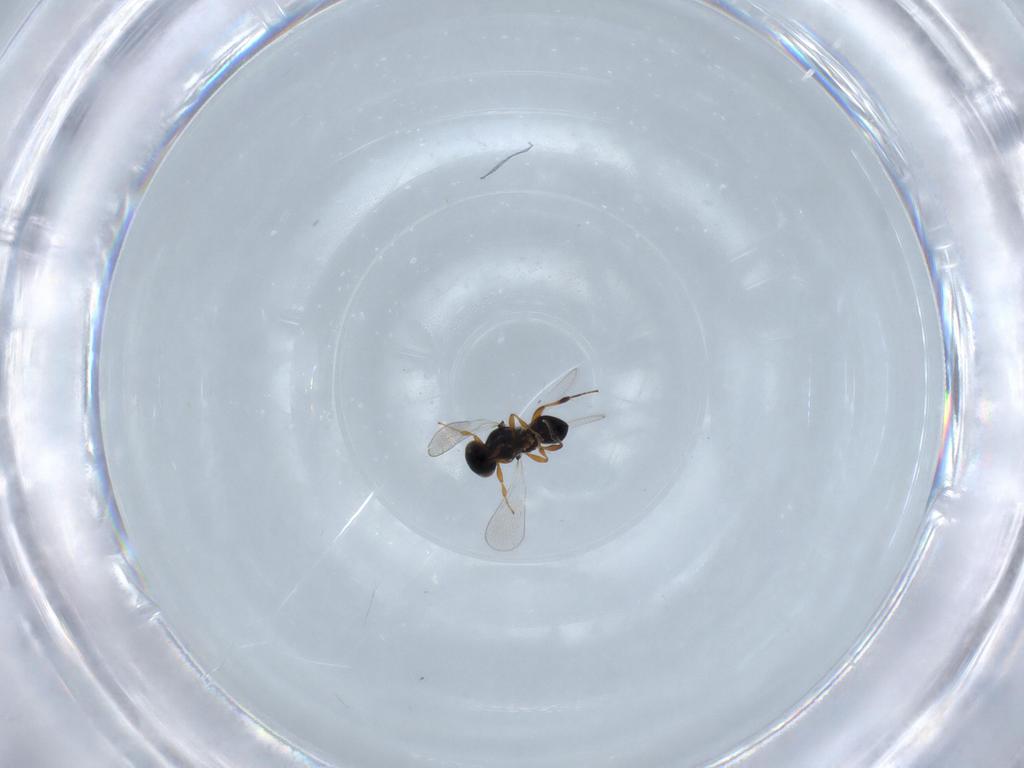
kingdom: Animalia
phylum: Arthropoda
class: Insecta
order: Hymenoptera
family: Platygastridae
